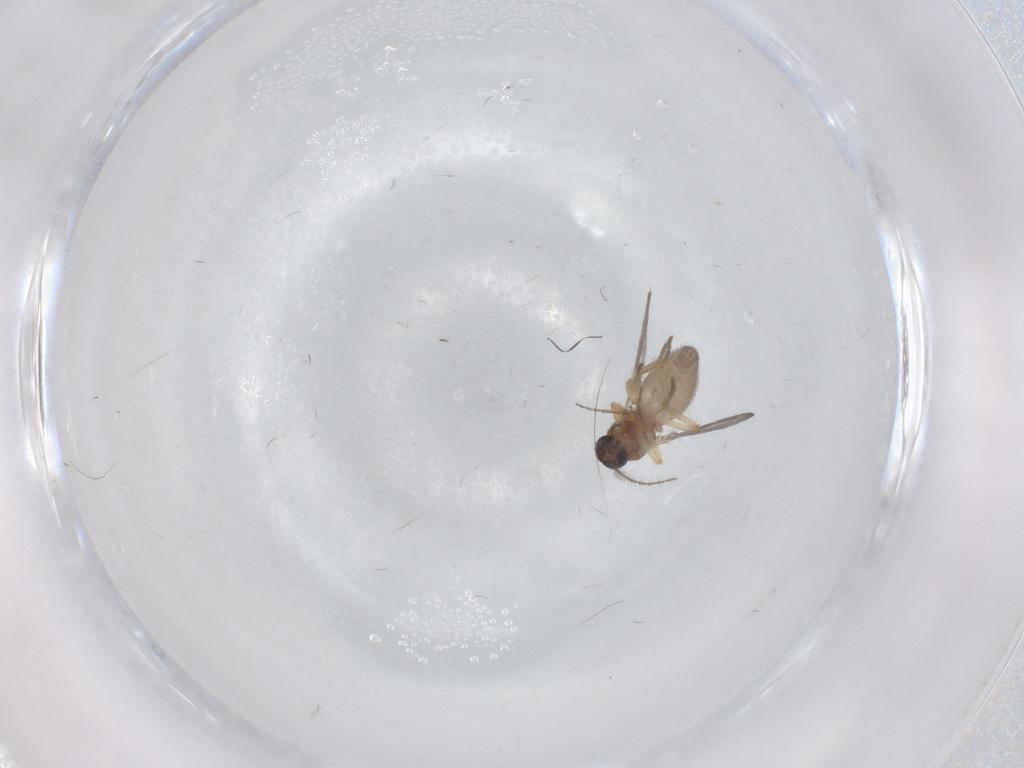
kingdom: Animalia
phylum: Arthropoda
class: Insecta
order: Diptera
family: Ceratopogonidae
